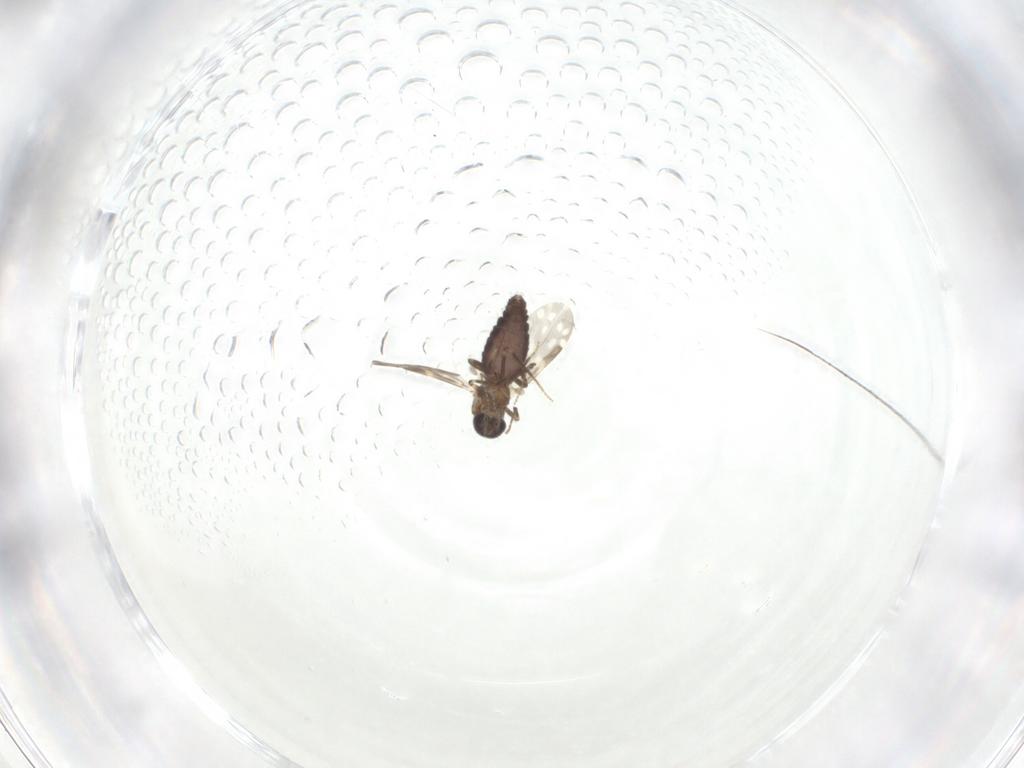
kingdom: Animalia
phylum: Arthropoda
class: Insecta
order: Diptera
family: Ceratopogonidae
